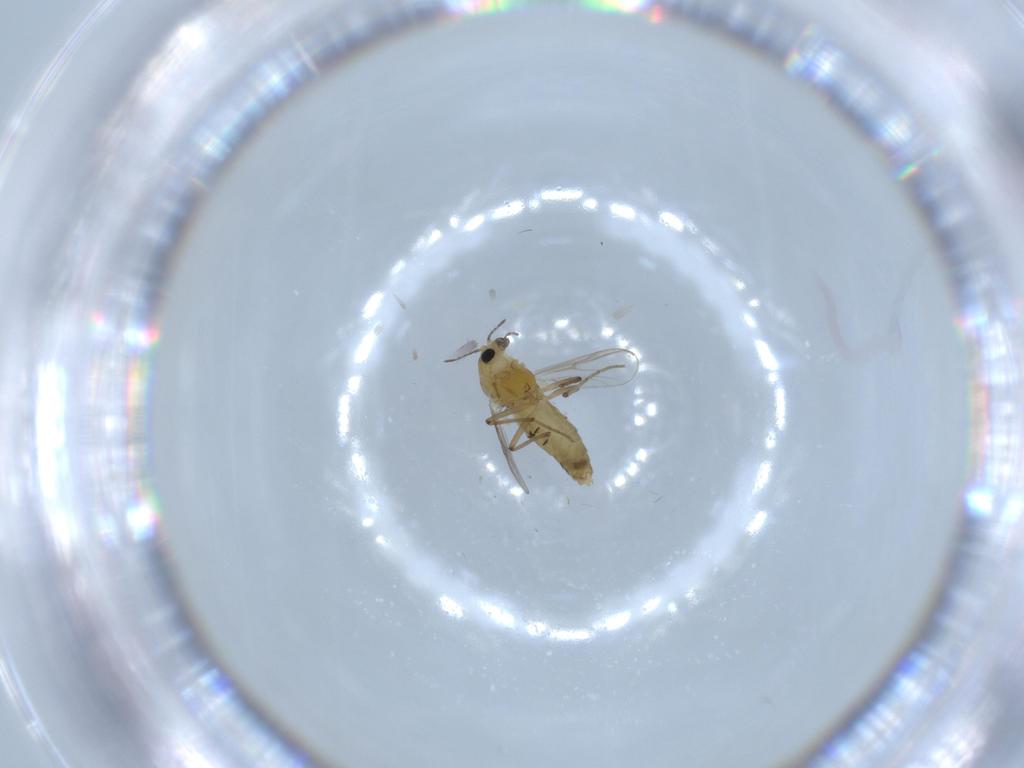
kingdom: Animalia
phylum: Arthropoda
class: Insecta
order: Diptera
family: Chironomidae
